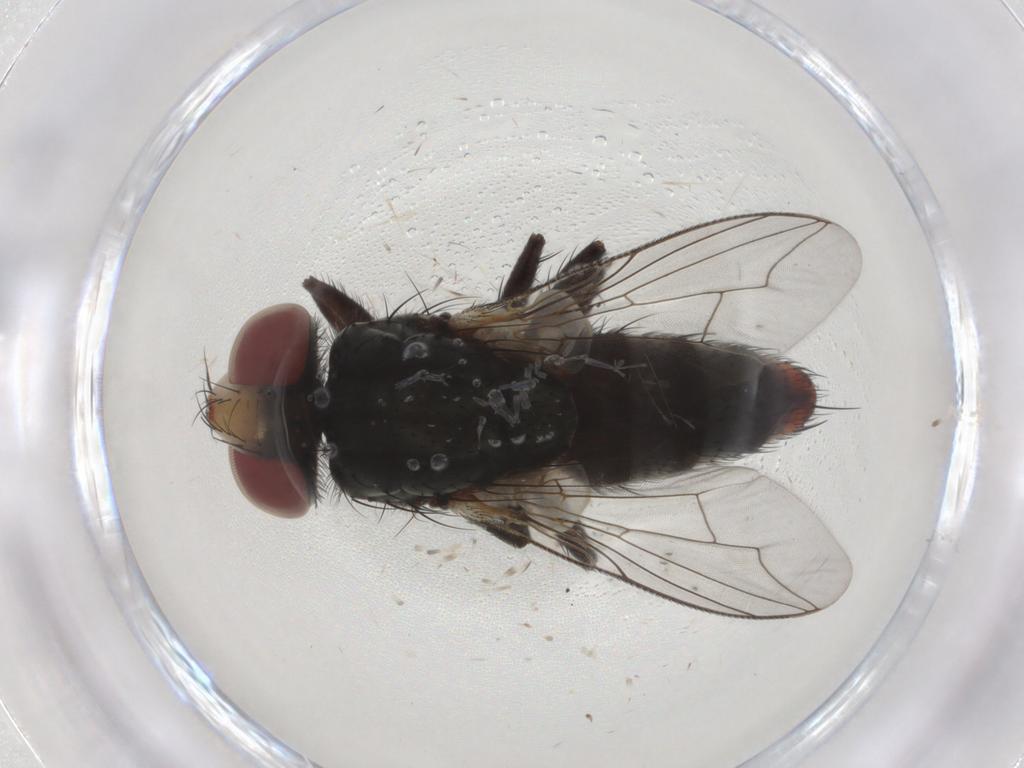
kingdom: Animalia
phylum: Arthropoda
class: Insecta
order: Diptera
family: Sarcophagidae
